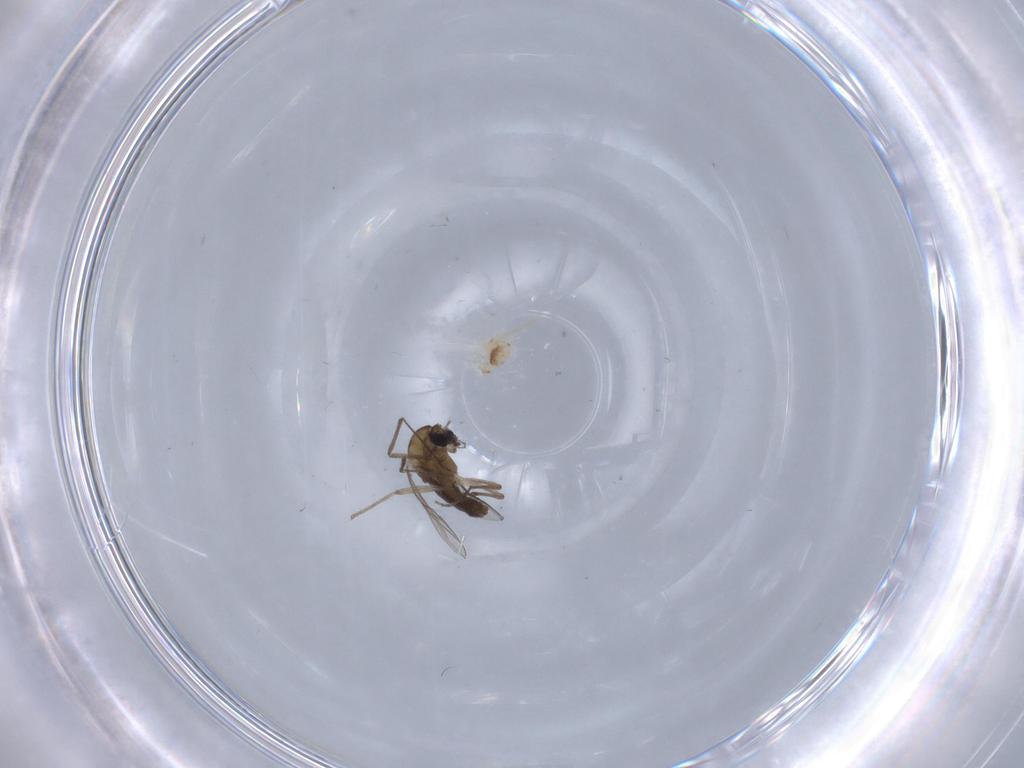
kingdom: Animalia
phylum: Arthropoda
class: Insecta
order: Diptera
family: Chironomidae
